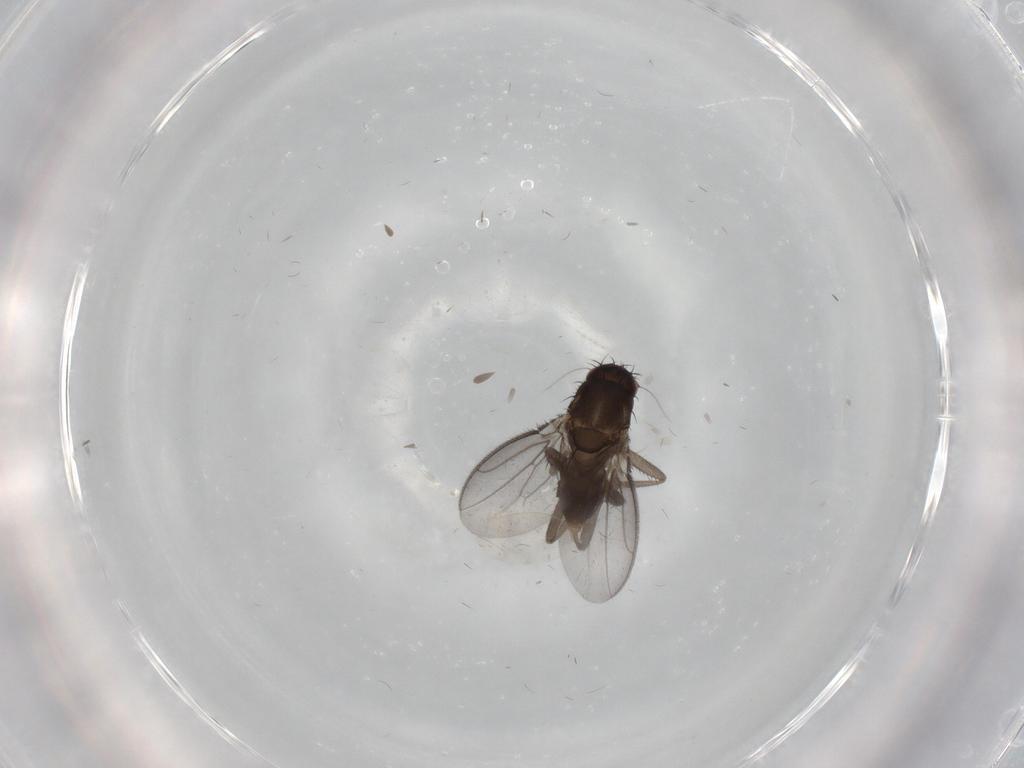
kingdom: Animalia
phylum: Arthropoda
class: Insecta
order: Diptera
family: Sphaeroceridae
